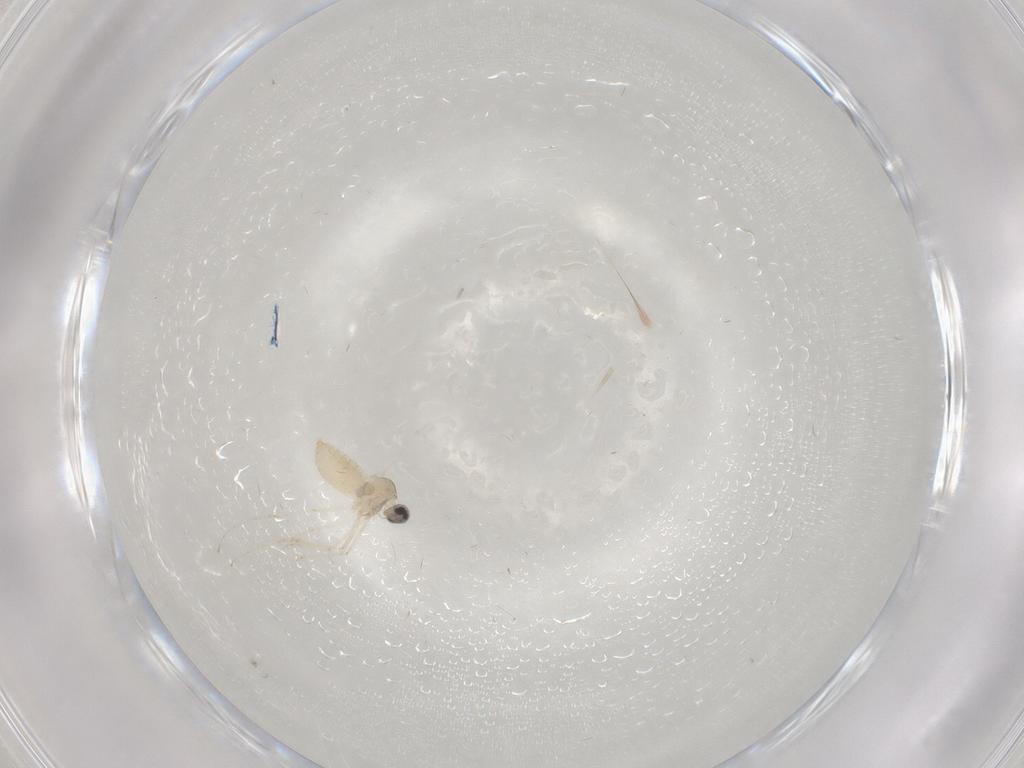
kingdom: Animalia
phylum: Arthropoda
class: Insecta
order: Diptera
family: Cecidomyiidae
